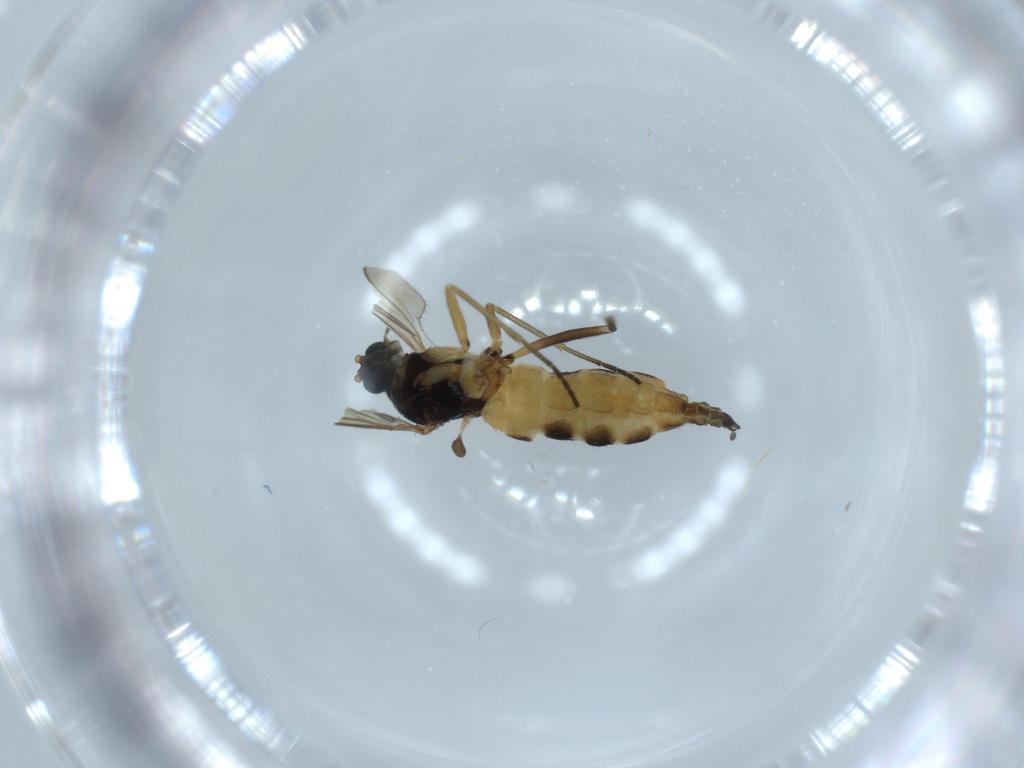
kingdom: Animalia
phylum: Arthropoda
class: Insecta
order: Diptera
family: Sciaridae
